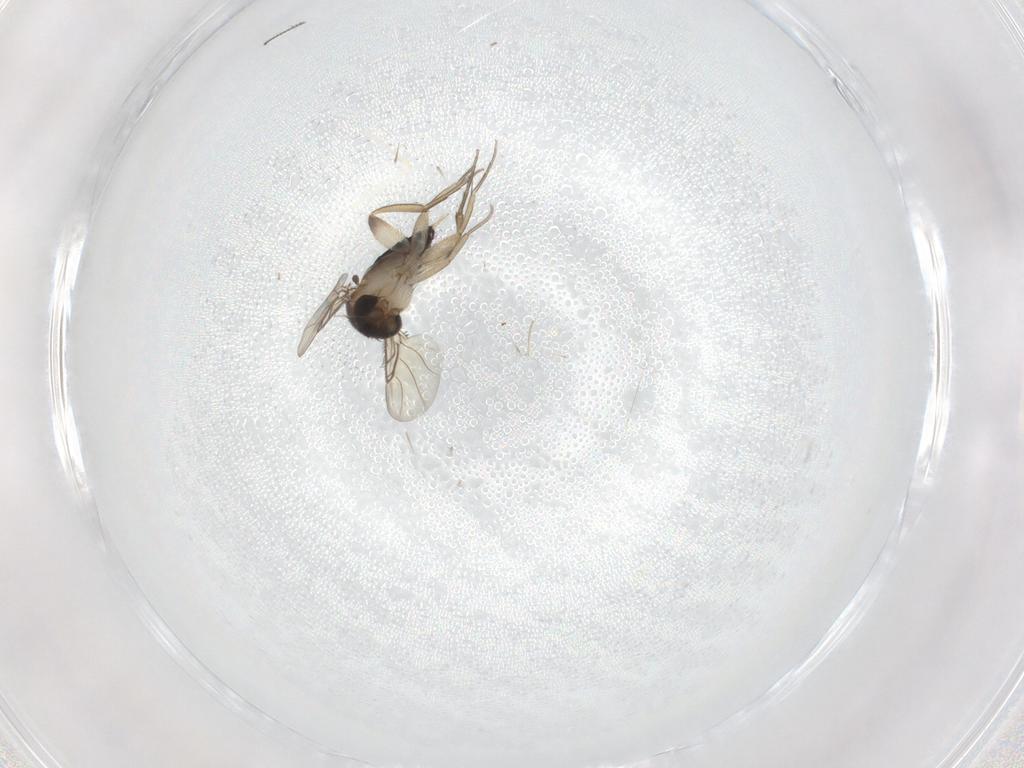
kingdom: Animalia
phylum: Arthropoda
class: Insecta
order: Diptera
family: Phoridae
